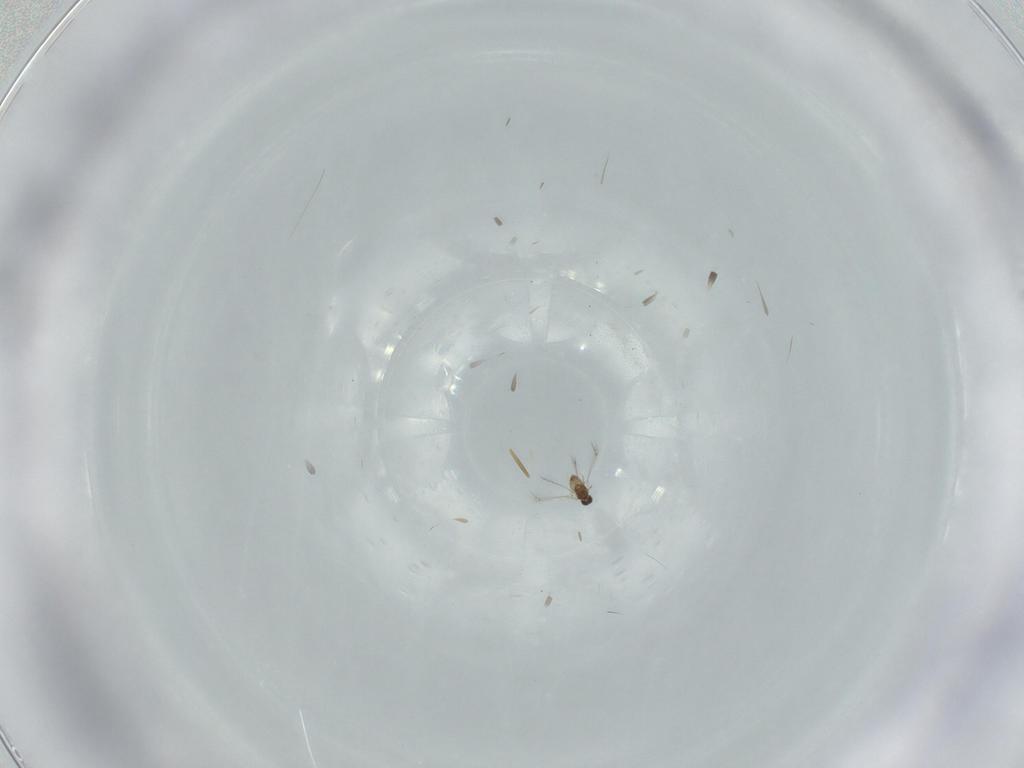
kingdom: Animalia
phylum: Arthropoda
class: Insecta
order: Hymenoptera
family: Mymaridae
